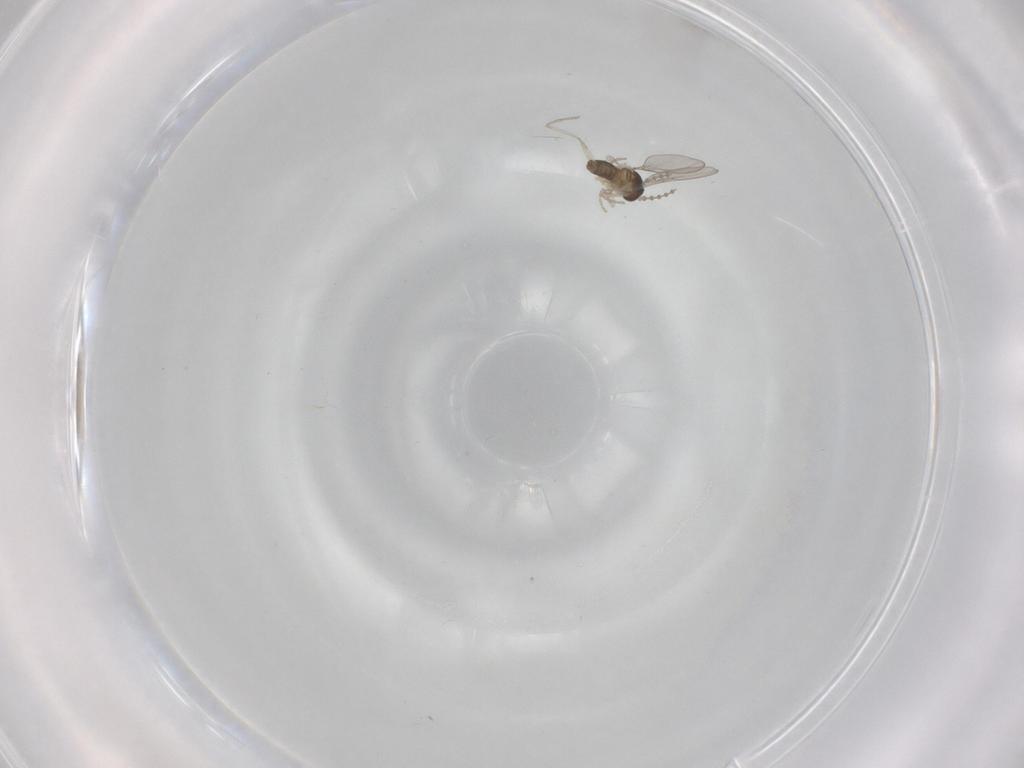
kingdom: Animalia
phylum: Arthropoda
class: Insecta
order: Diptera
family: Cecidomyiidae
